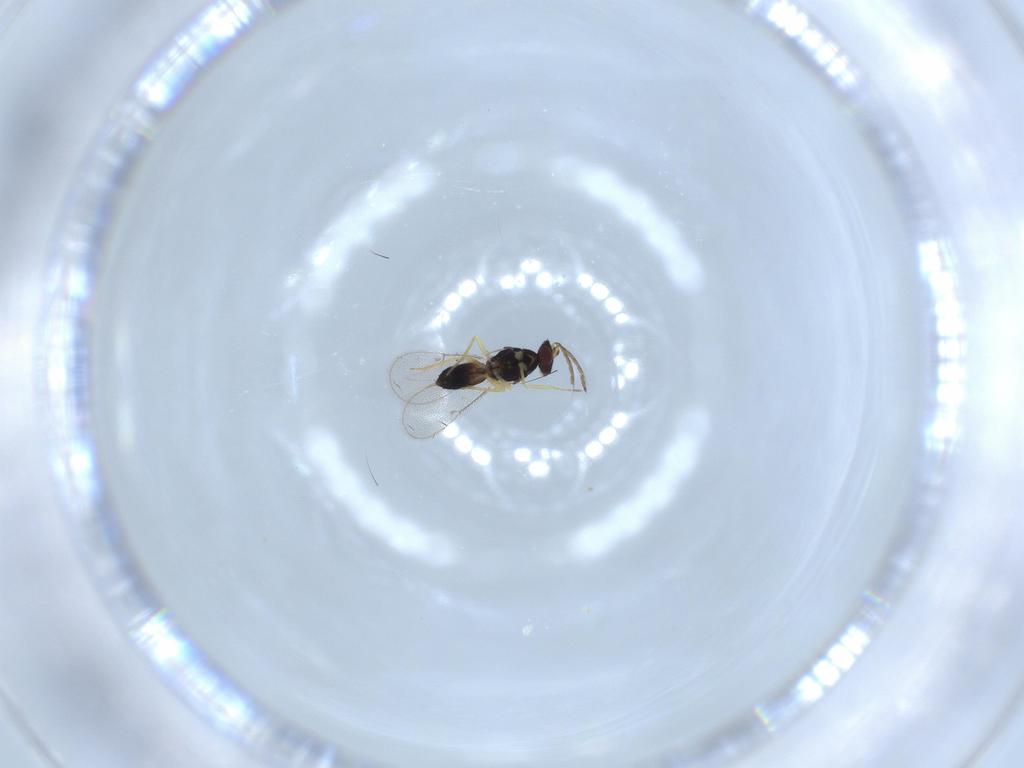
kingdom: Animalia
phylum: Arthropoda
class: Insecta
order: Hymenoptera
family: Eulophidae
